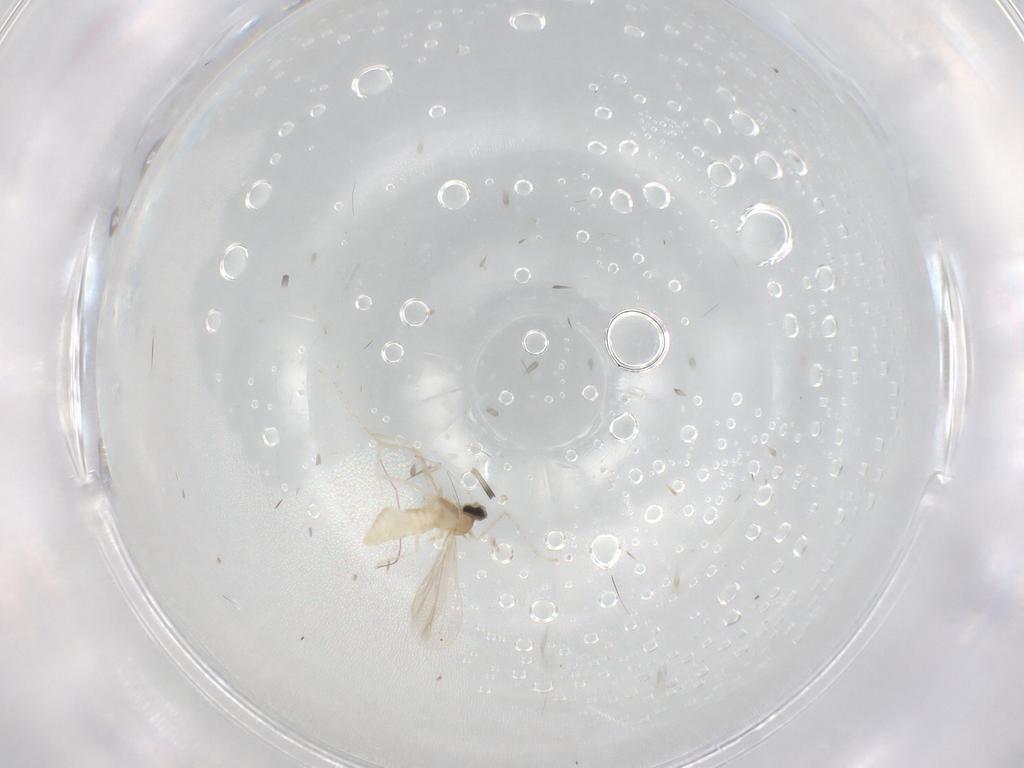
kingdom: Animalia
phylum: Arthropoda
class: Insecta
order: Diptera
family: Cecidomyiidae
